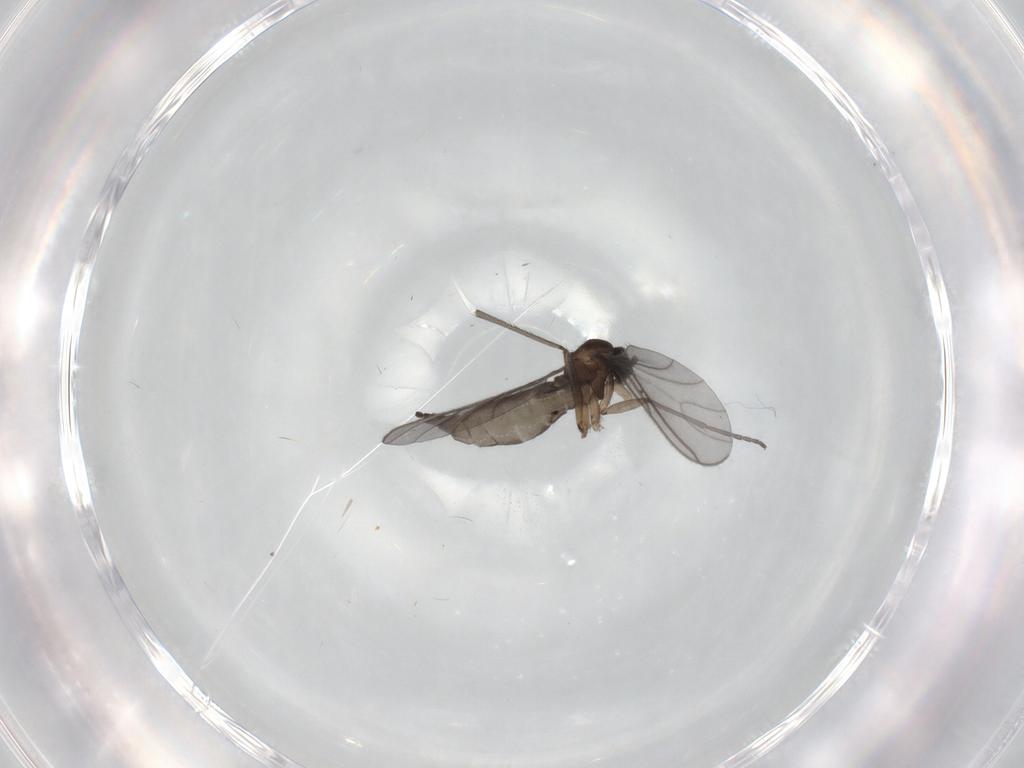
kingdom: Animalia
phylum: Arthropoda
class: Insecta
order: Diptera
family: Sciaridae
